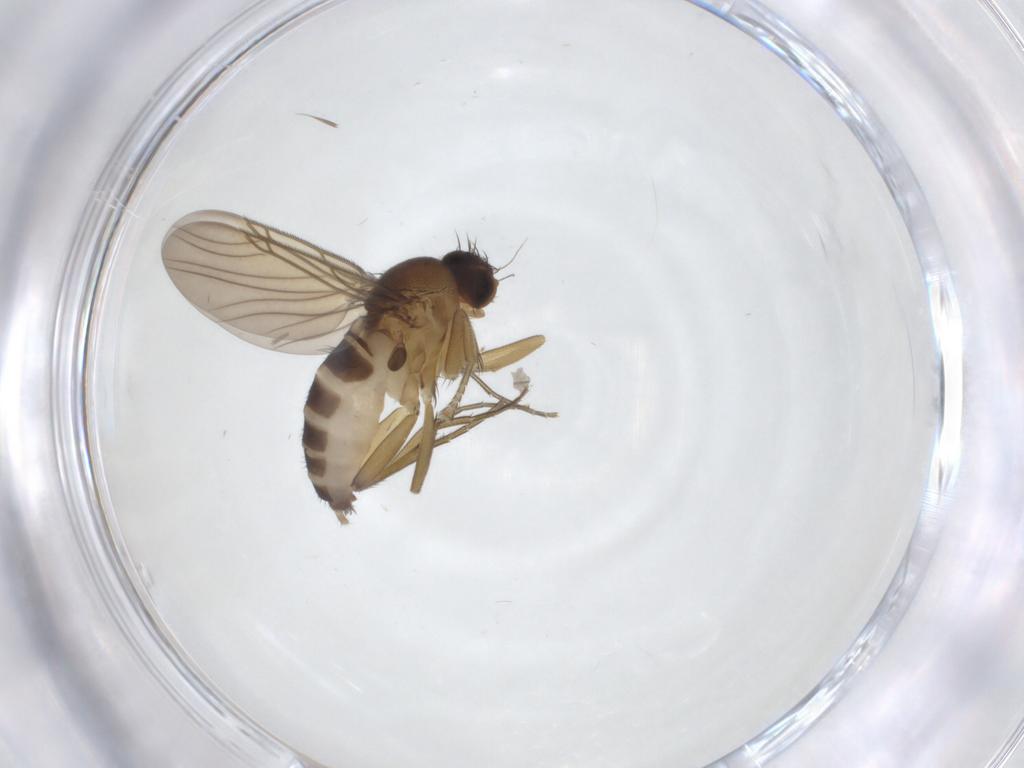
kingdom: Animalia
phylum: Arthropoda
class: Insecta
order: Diptera
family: Phoridae
